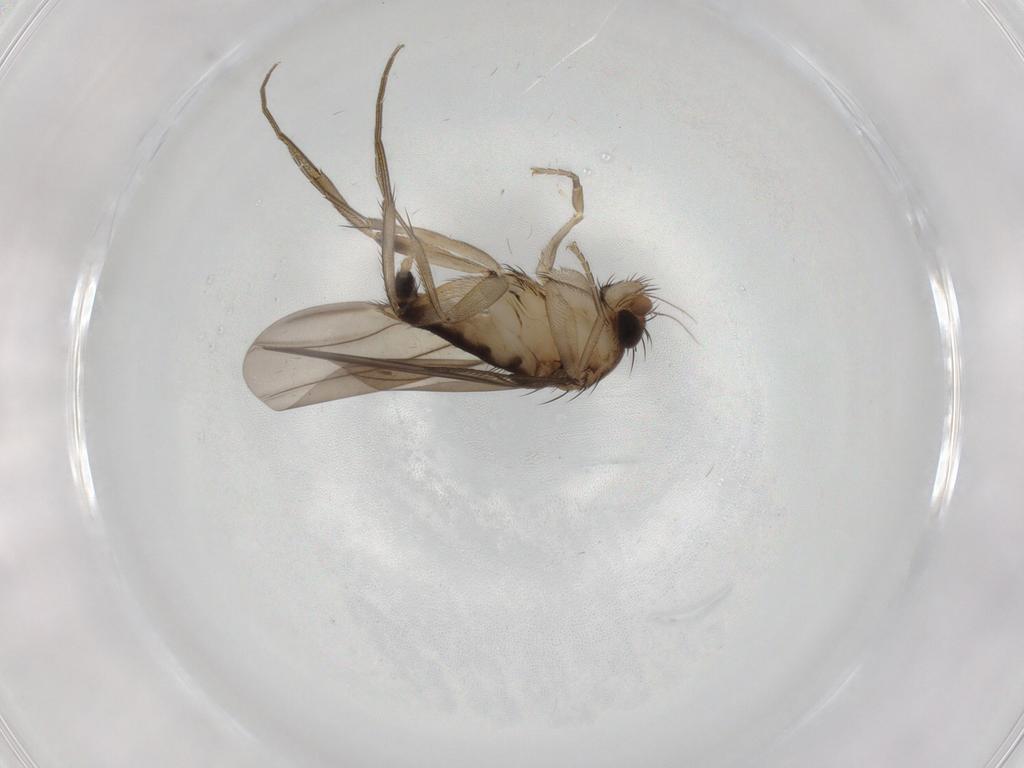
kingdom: Animalia
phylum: Arthropoda
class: Insecta
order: Diptera
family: Phoridae
